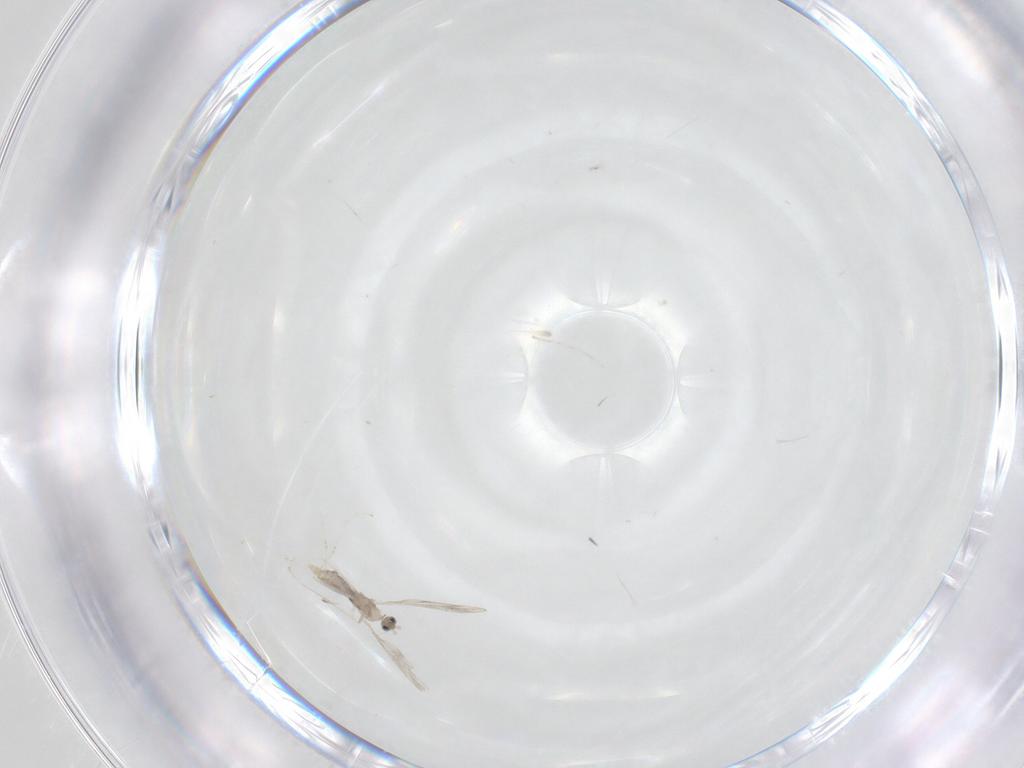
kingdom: Animalia
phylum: Arthropoda
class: Insecta
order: Diptera
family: Cecidomyiidae
